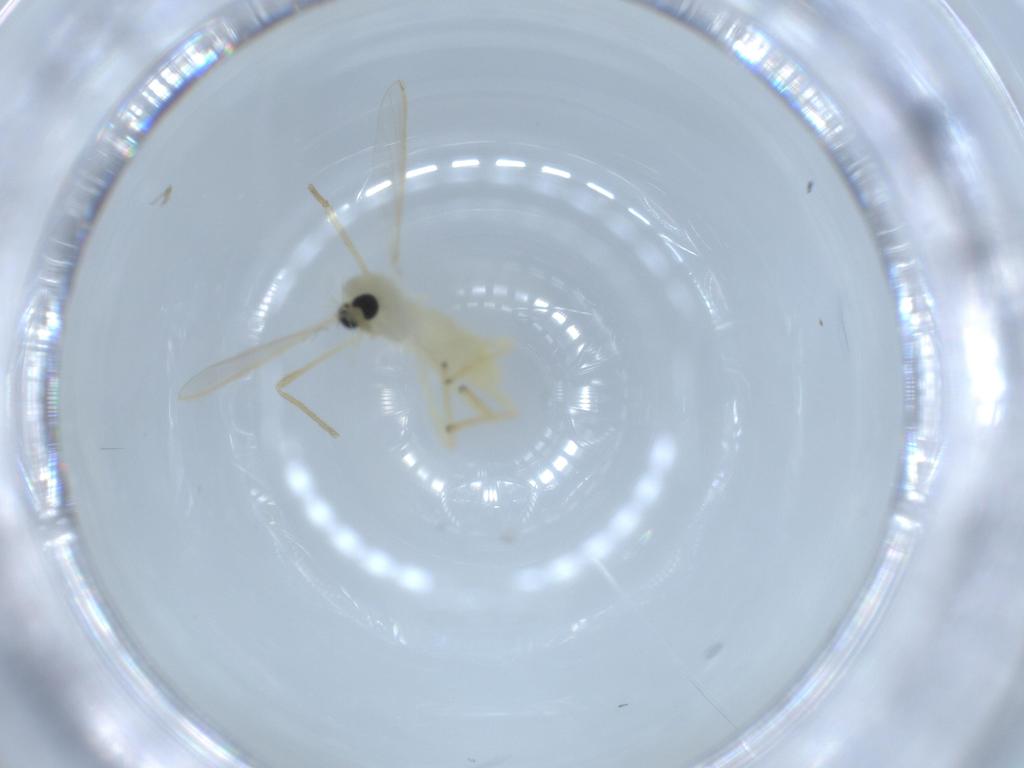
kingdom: Animalia
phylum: Arthropoda
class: Insecta
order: Diptera
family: Chironomidae
